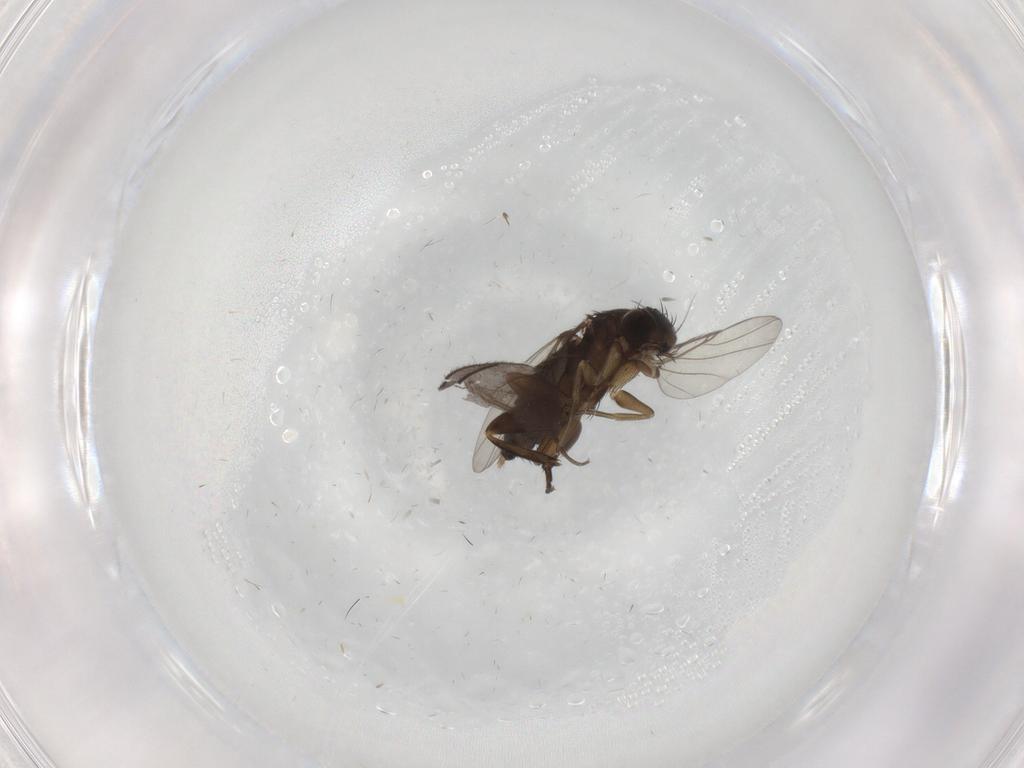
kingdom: Animalia
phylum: Arthropoda
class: Insecta
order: Diptera
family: Phoridae
